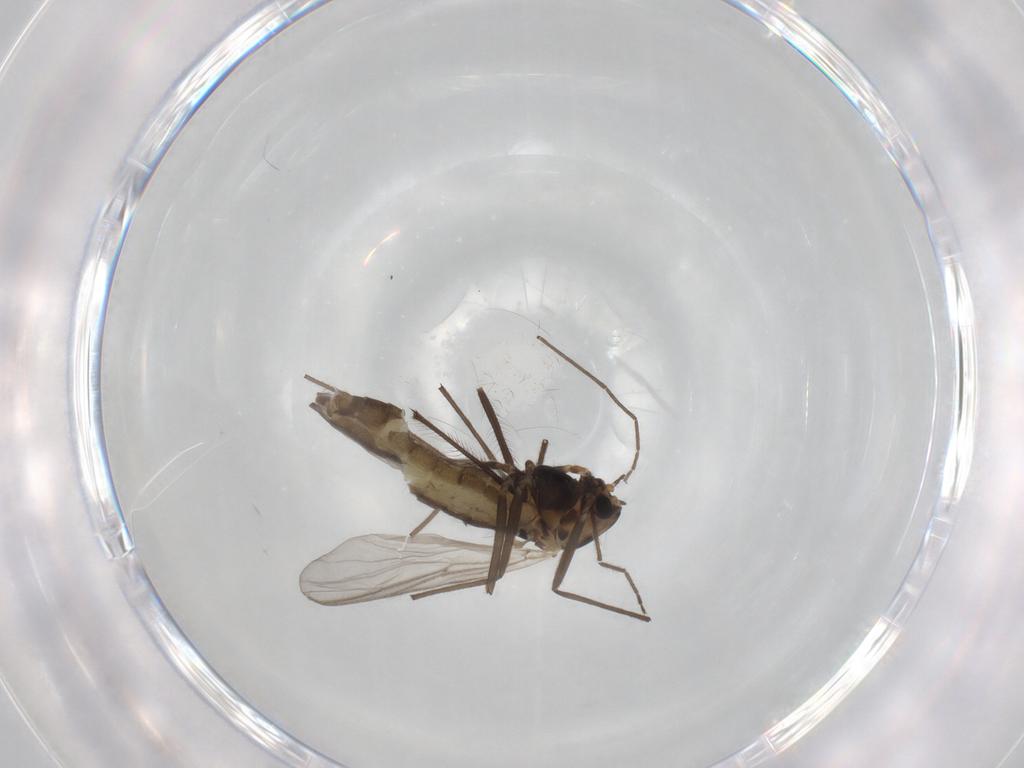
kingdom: Animalia
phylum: Arthropoda
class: Insecta
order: Diptera
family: Chironomidae
